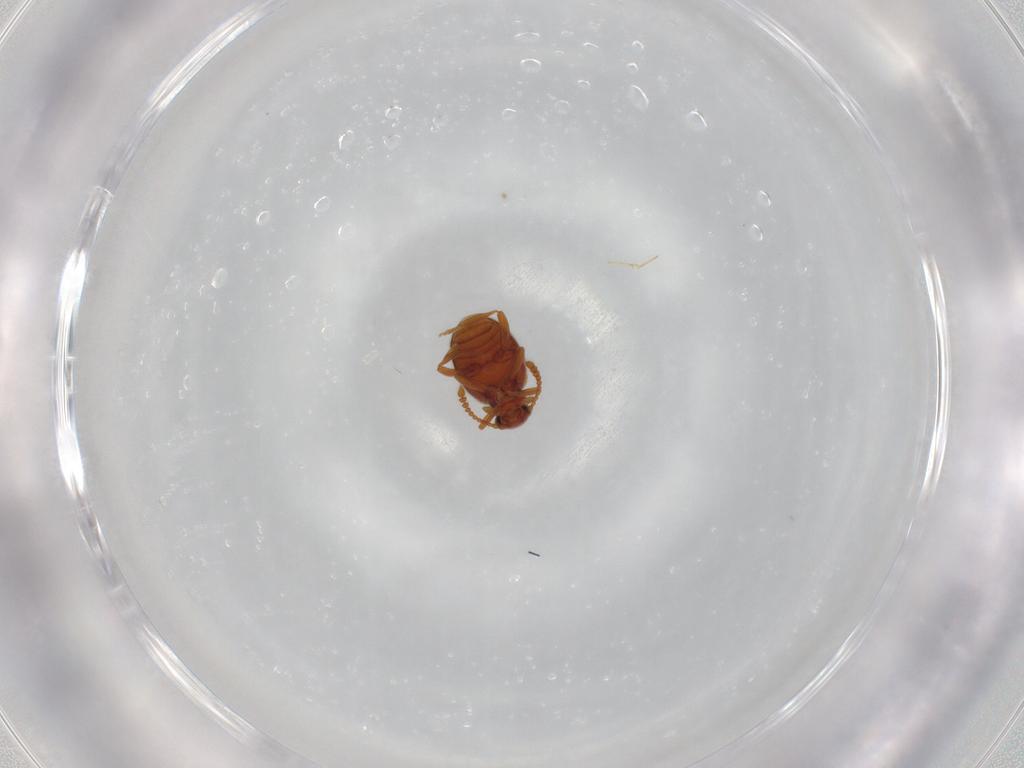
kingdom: Animalia
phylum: Arthropoda
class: Insecta
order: Coleoptera
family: Aderidae
